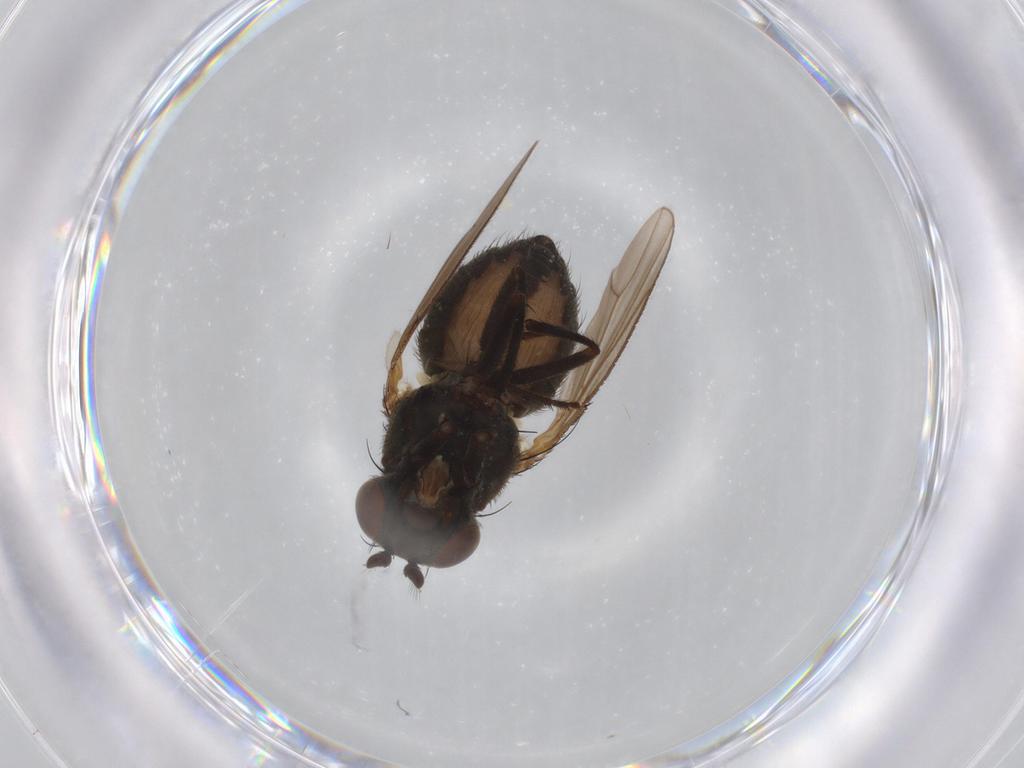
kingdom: Animalia
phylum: Arthropoda
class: Insecta
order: Diptera
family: Ephydridae
